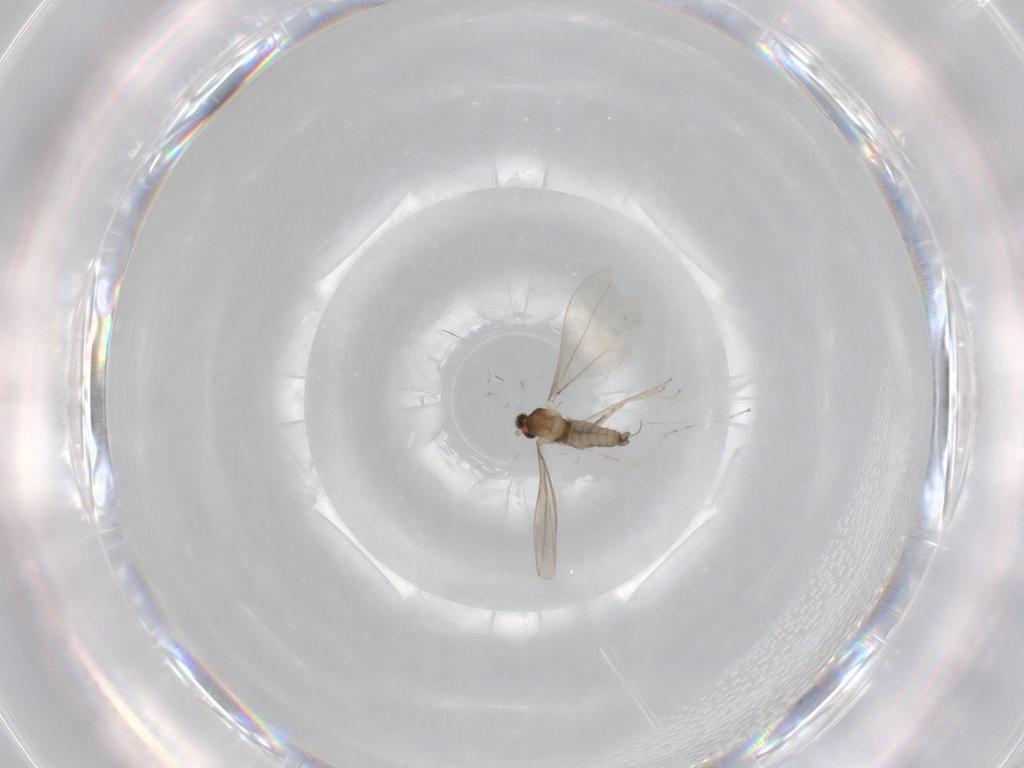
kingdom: Animalia
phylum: Arthropoda
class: Insecta
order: Diptera
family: Cecidomyiidae
